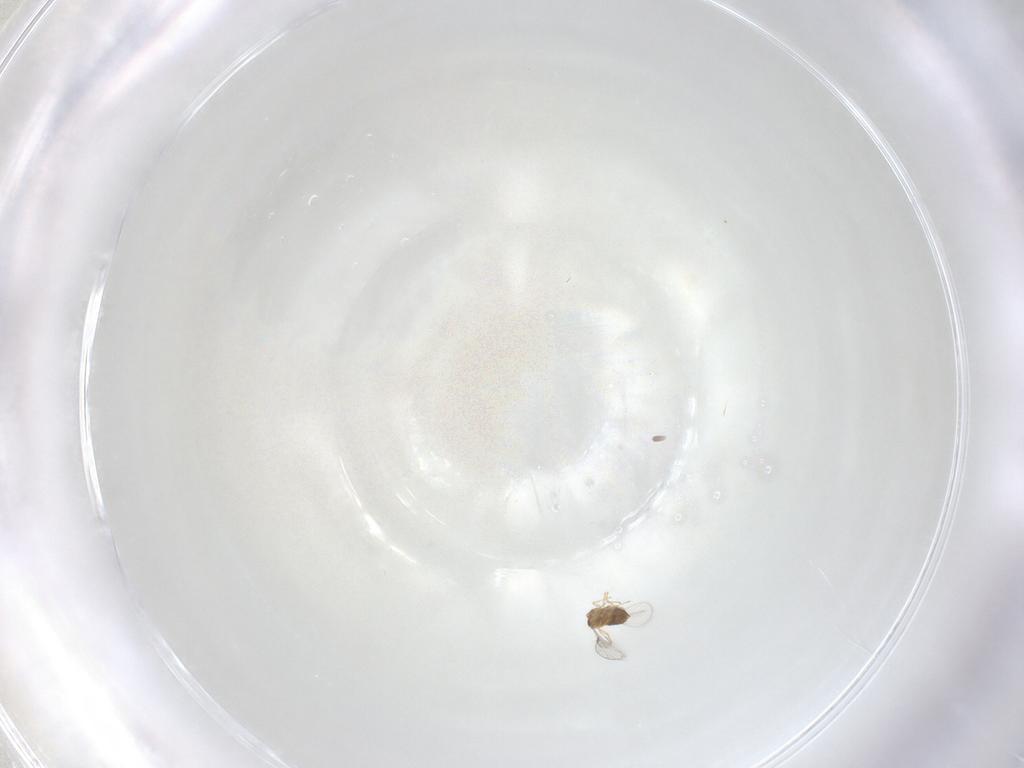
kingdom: Animalia
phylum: Arthropoda
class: Insecta
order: Hymenoptera
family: Trichogrammatidae
